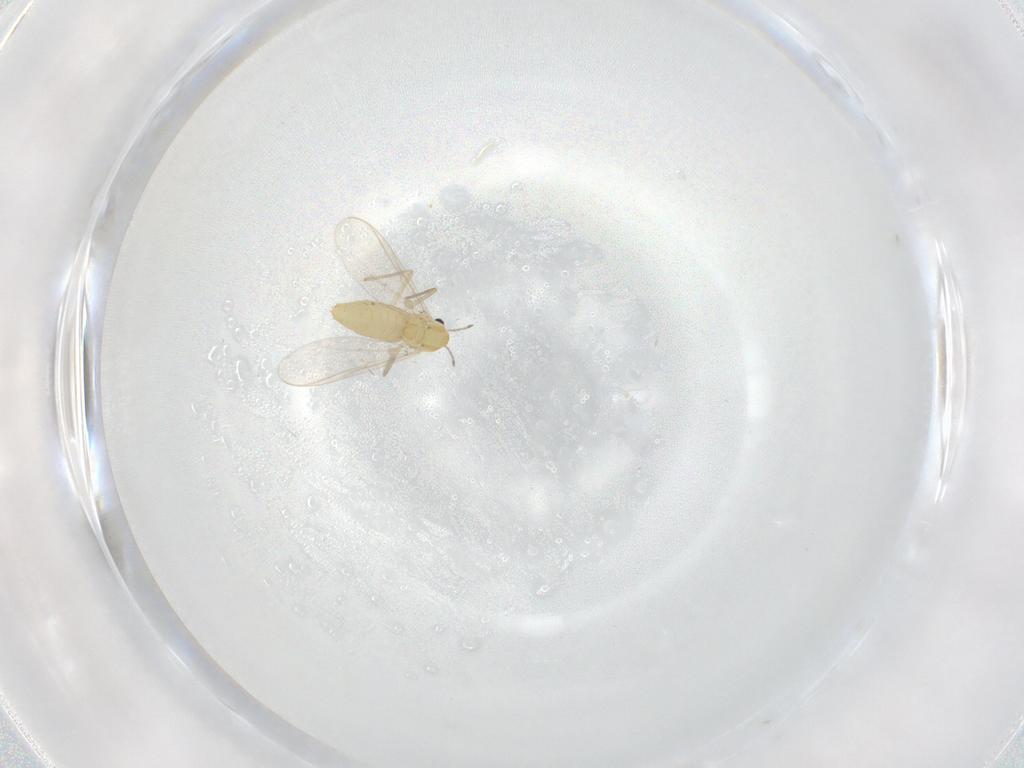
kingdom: Animalia
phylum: Arthropoda
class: Insecta
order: Diptera
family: Chironomidae
